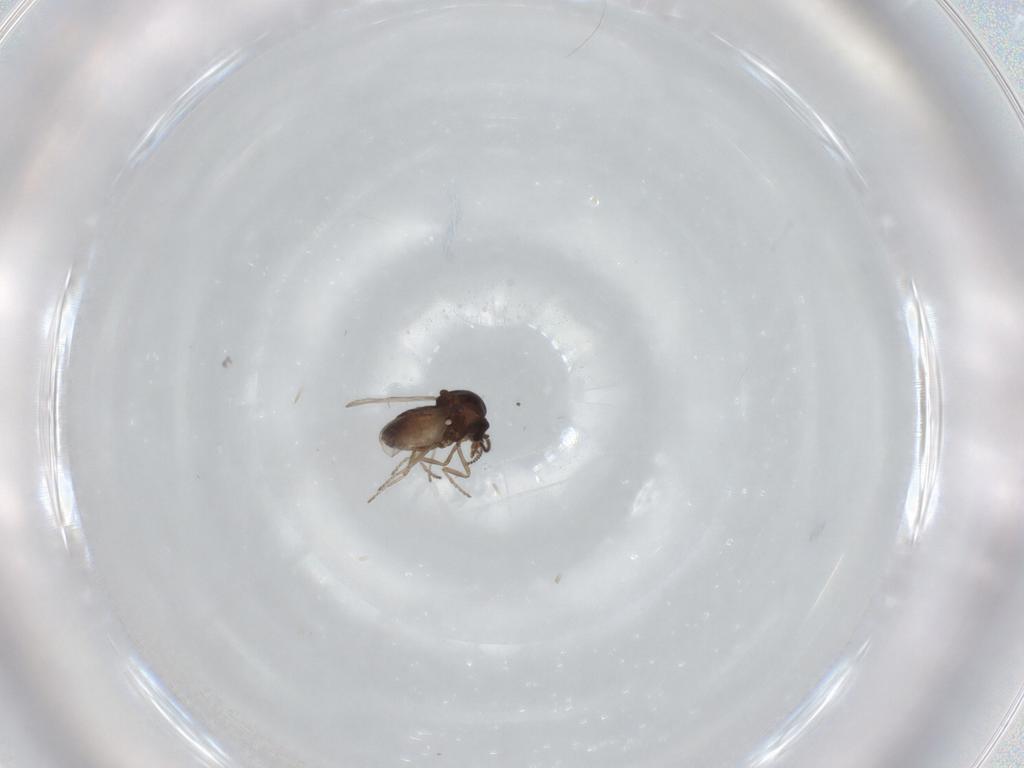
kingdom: Animalia
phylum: Arthropoda
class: Insecta
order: Diptera
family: Ceratopogonidae
